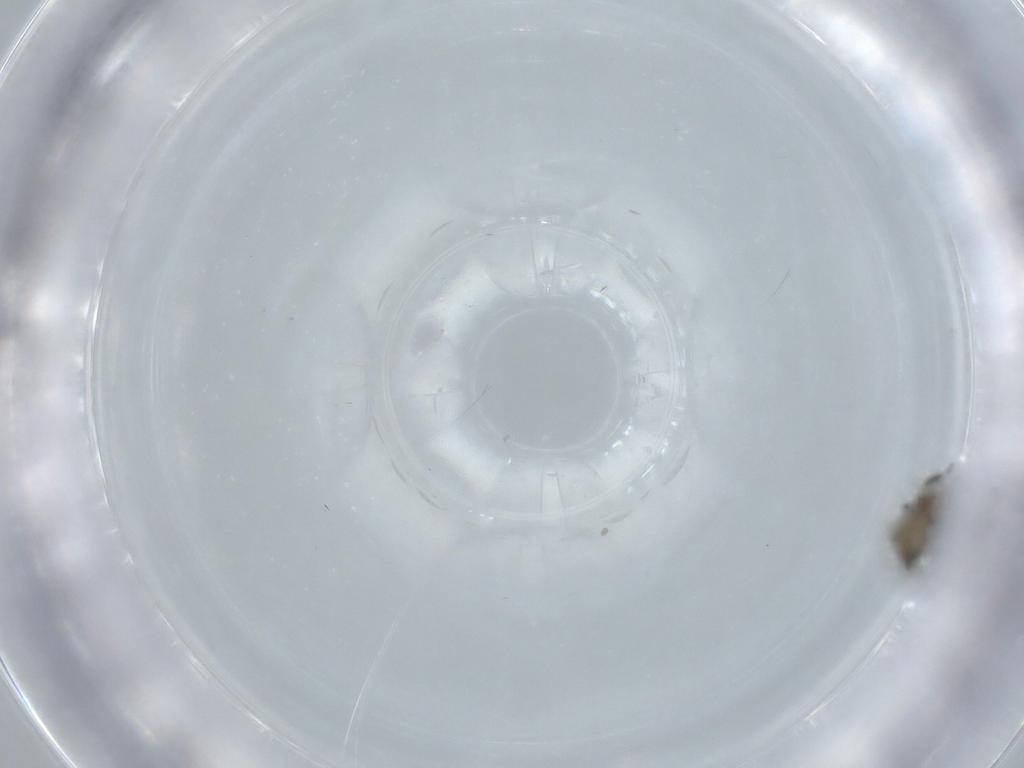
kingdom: Animalia
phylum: Arthropoda
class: Insecta
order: Diptera
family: Phoridae
